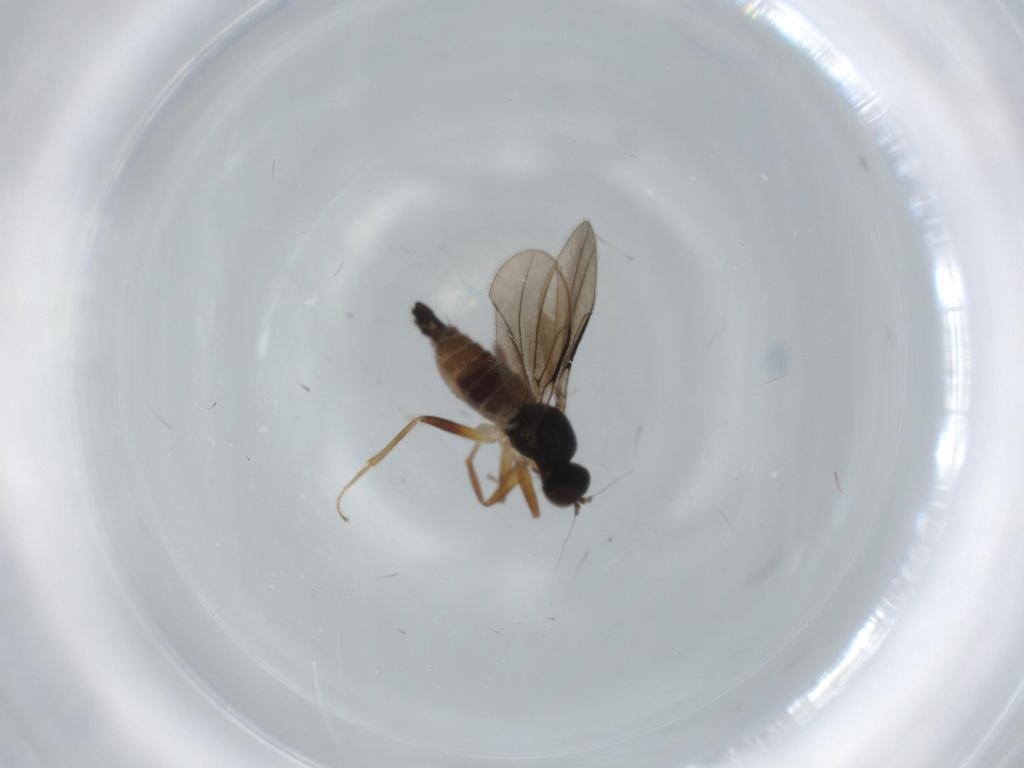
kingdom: Animalia
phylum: Arthropoda
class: Insecta
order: Diptera
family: Hybotidae
